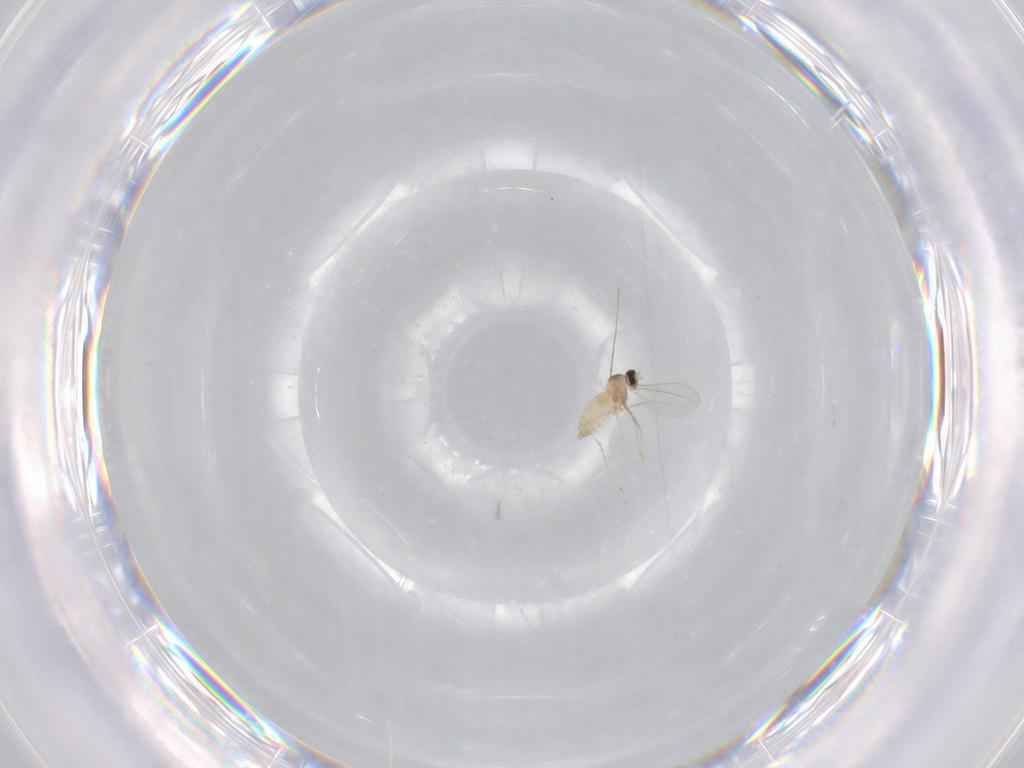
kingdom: Animalia
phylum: Arthropoda
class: Insecta
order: Diptera
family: Cecidomyiidae
